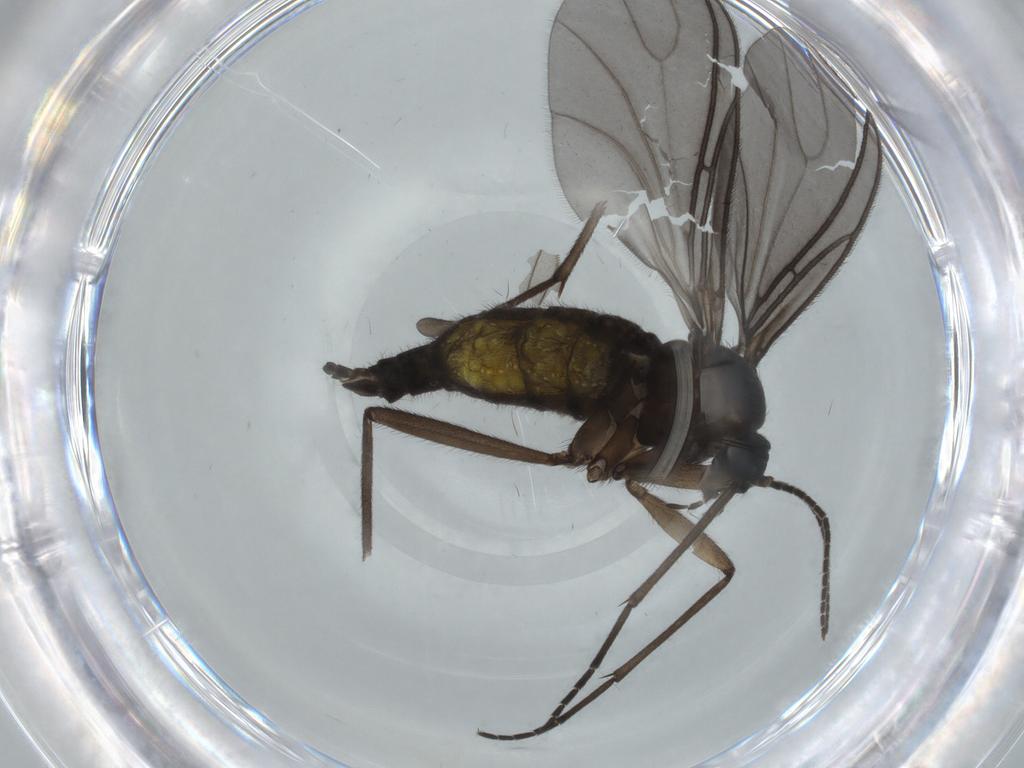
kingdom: Animalia
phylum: Arthropoda
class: Insecta
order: Diptera
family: Sciaridae
